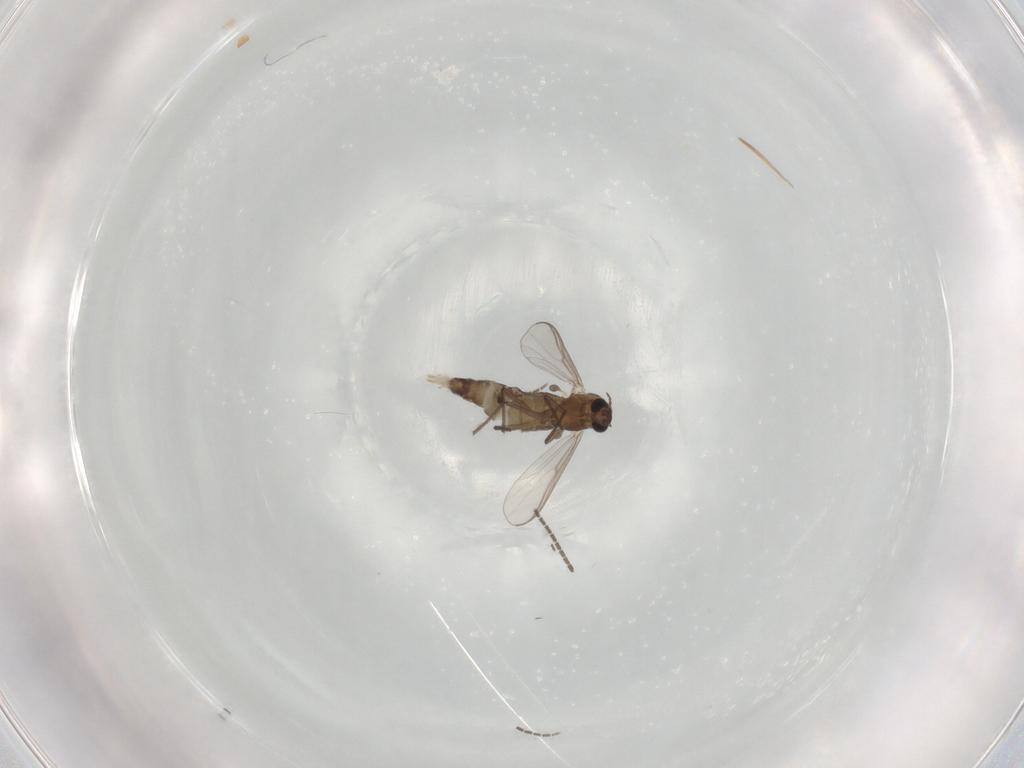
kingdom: Animalia
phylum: Arthropoda
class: Insecta
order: Diptera
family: Chironomidae
